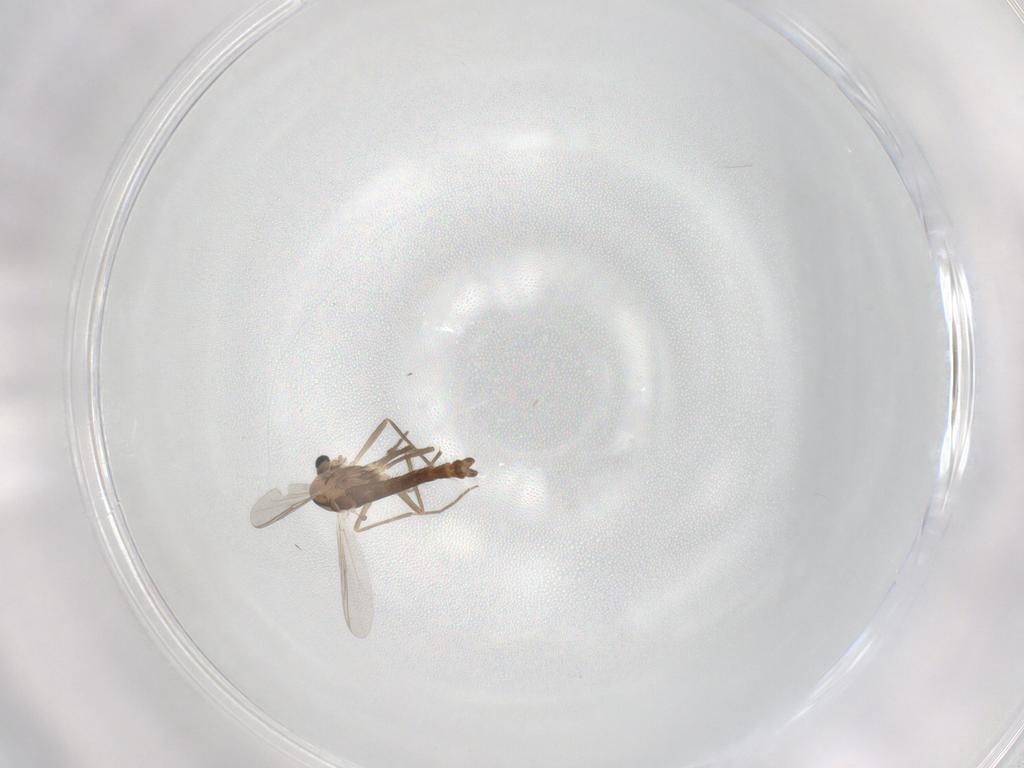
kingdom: Animalia
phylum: Arthropoda
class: Insecta
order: Diptera
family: Chironomidae
